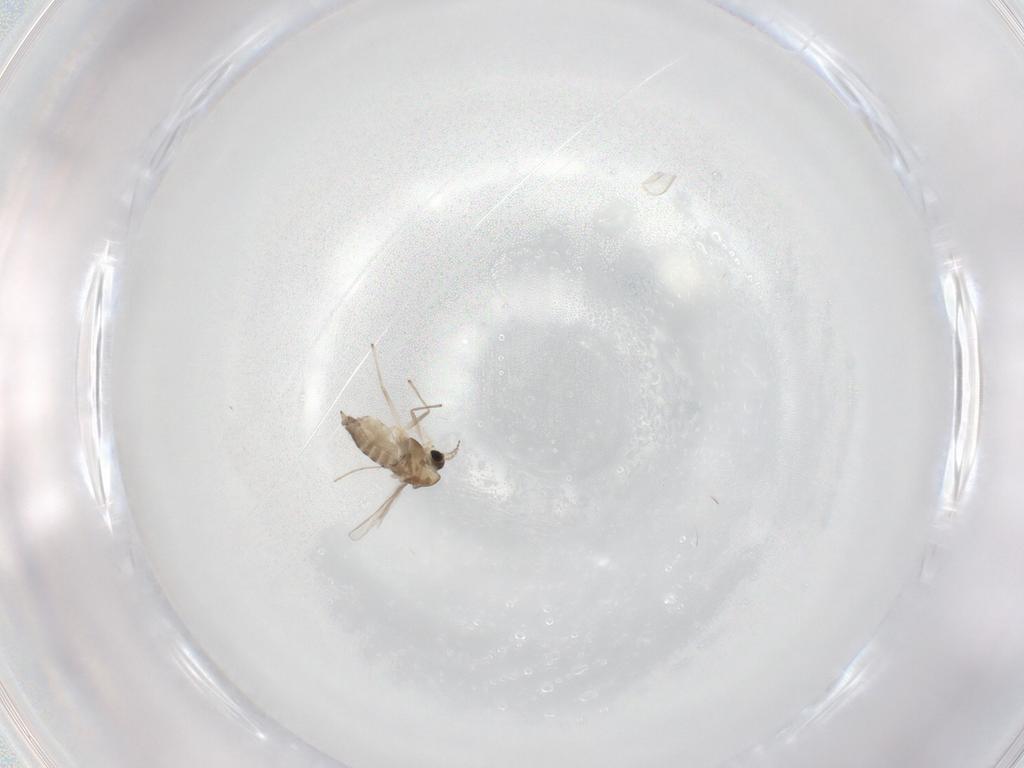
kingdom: Animalia
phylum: Arthropoda
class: Insecta
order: Diptera
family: Chironomidae
